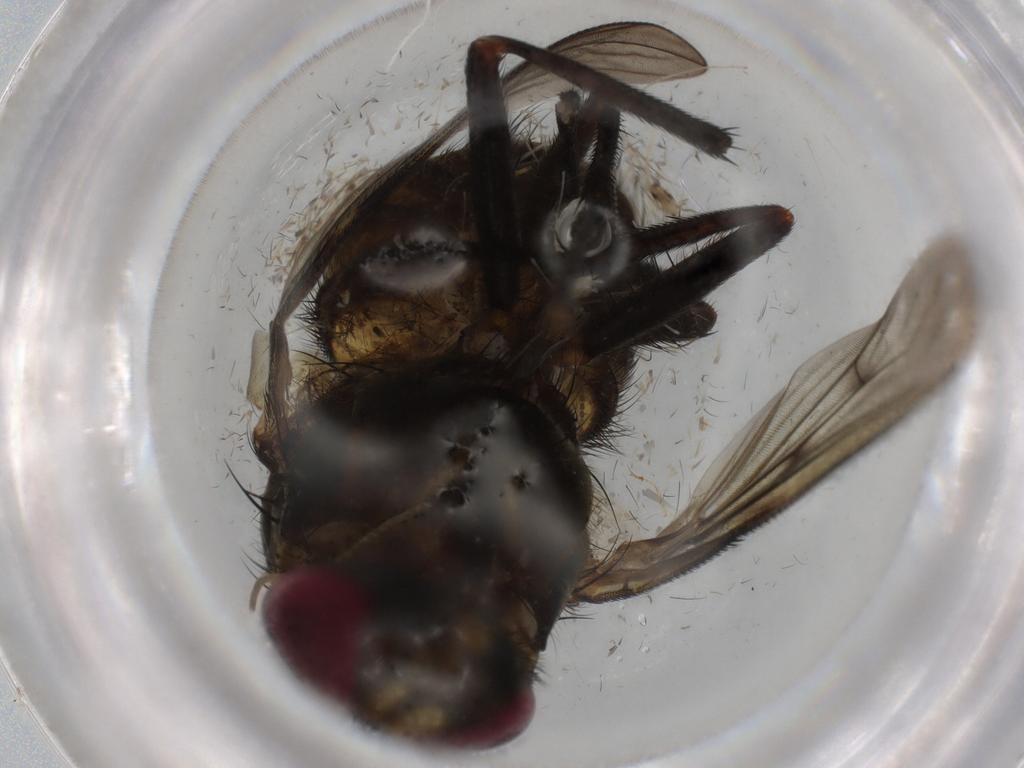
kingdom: Animalia
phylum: Arthropoda
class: Insecta
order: Diptera
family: Muscidae
